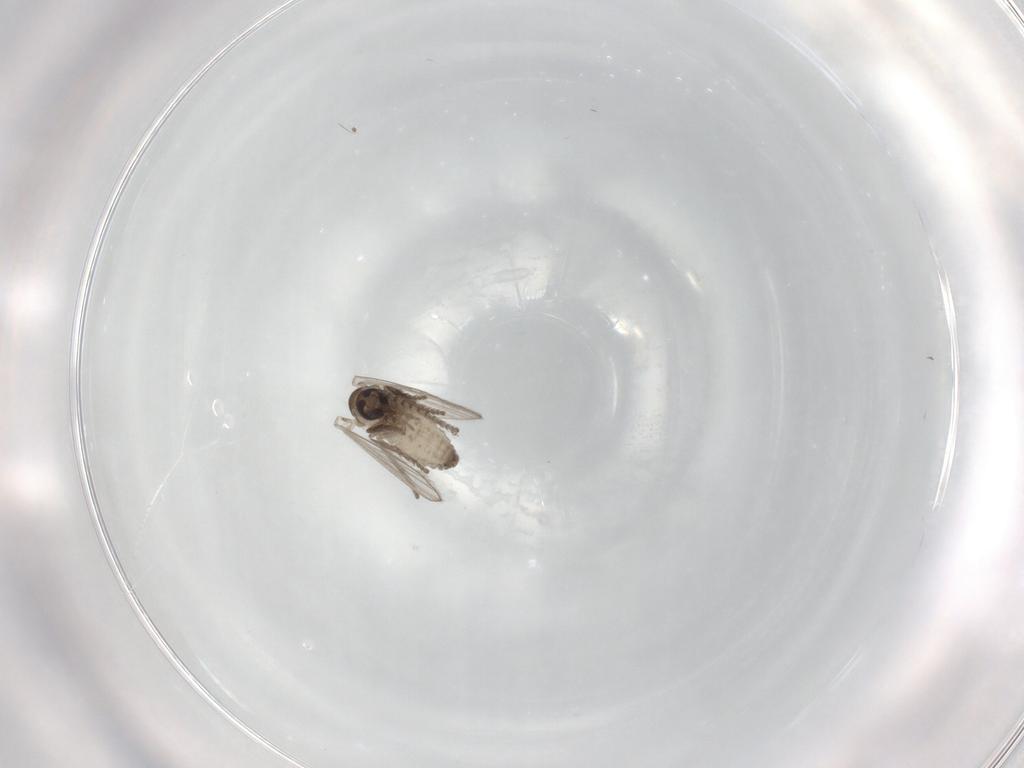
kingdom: Animalia
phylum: Arthropoda
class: Insecta
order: Diptera
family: Psychodidae
